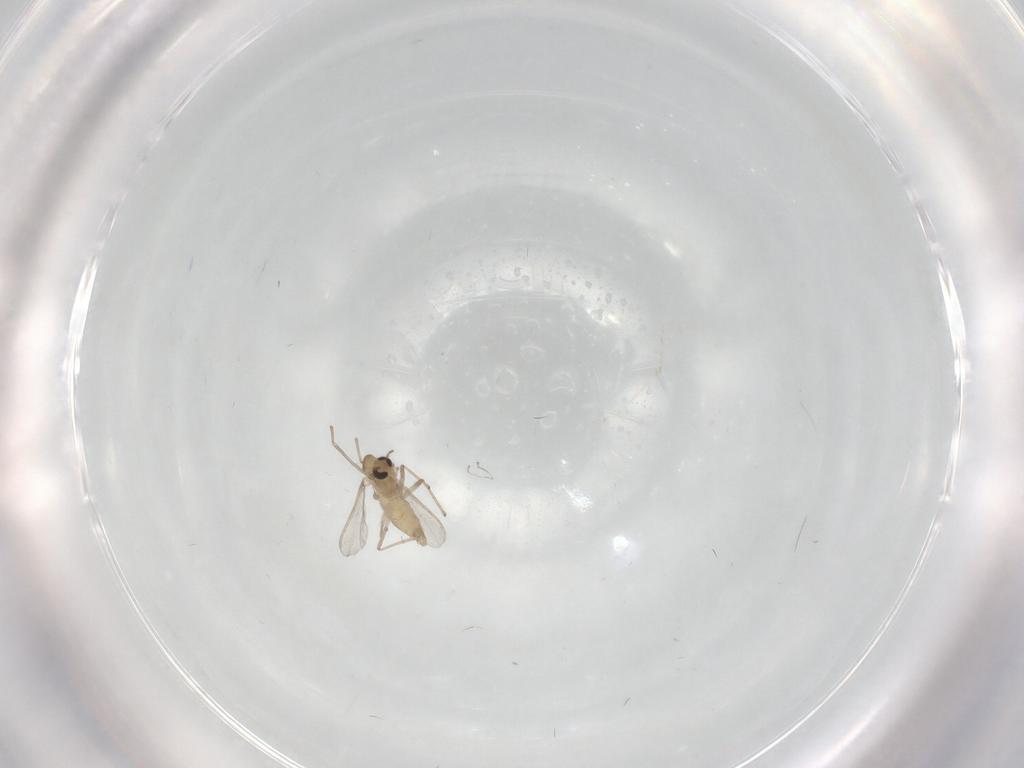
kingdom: Animalia
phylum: Arthropoda
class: Insecta
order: Diptera
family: Chironomidae
